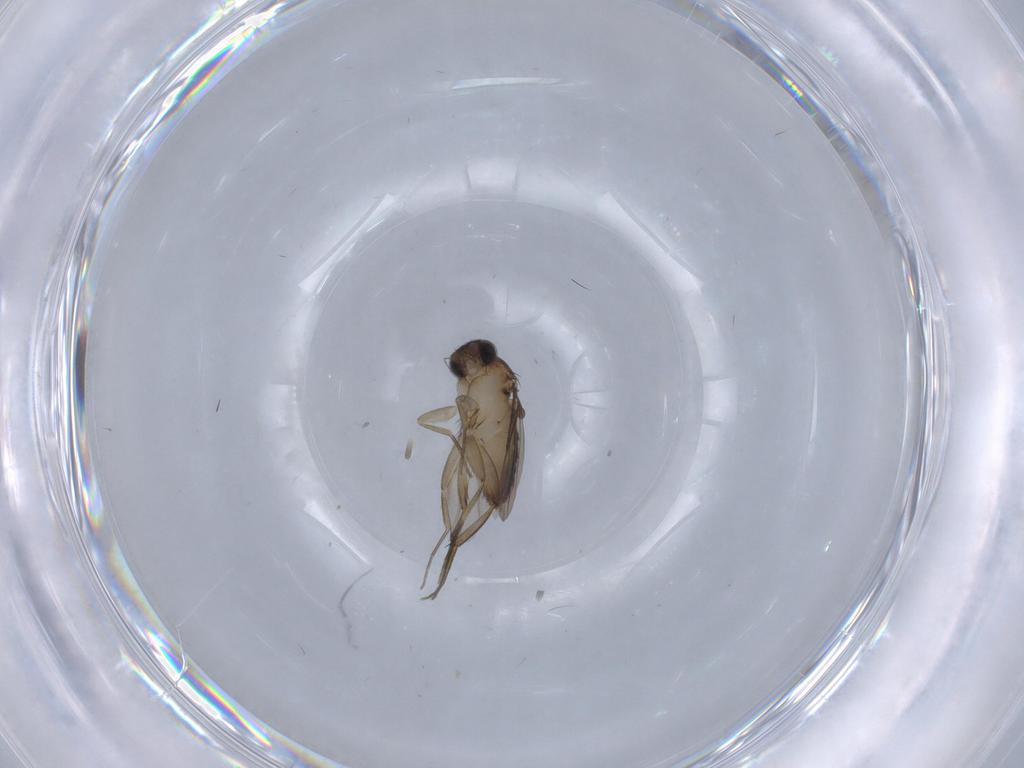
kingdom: Animalia
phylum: Arthropoda
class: Insecta
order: Diptera
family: Phoridae
